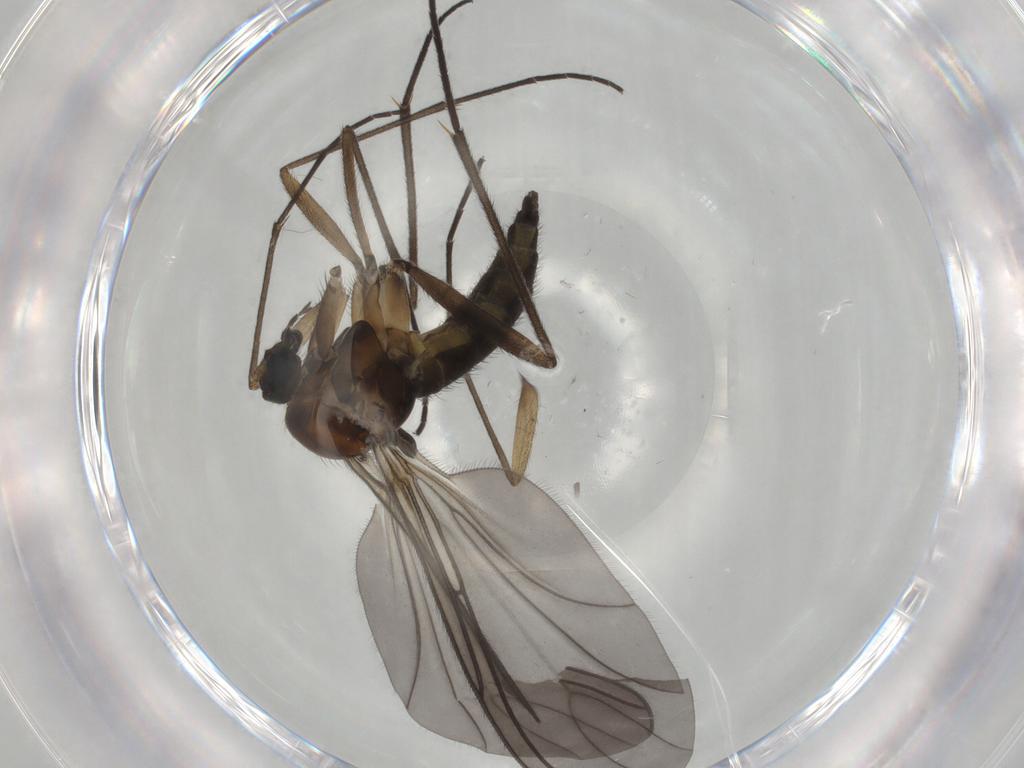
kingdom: Animalia
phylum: Arthropoda
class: Insecta
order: Diptera
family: Sciaridae
